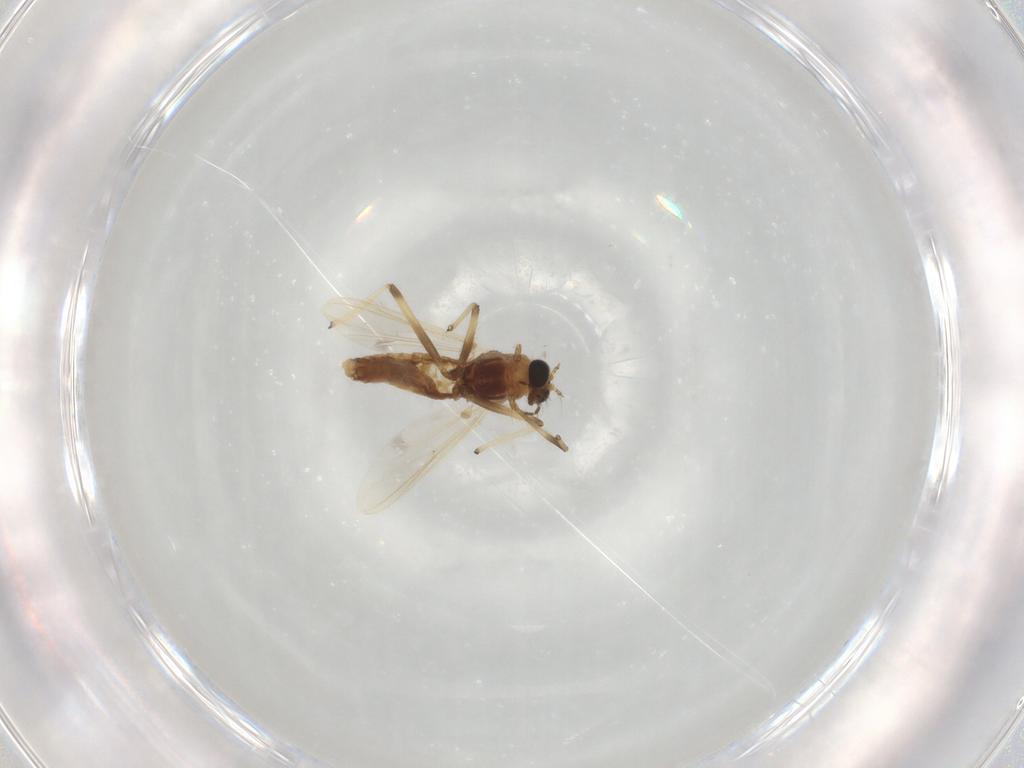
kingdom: Animalia
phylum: Arthropoda
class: Insecta
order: Diptera
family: Chironomidae
